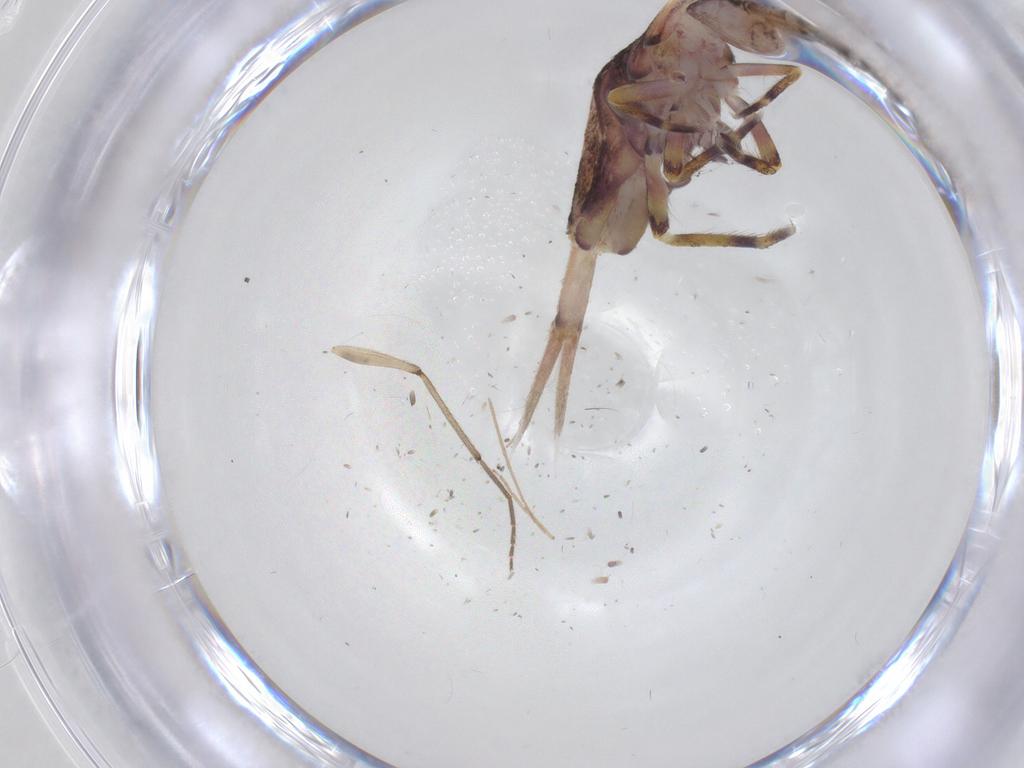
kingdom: Animalia
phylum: Arthropoda
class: Collembola
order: Entomobryomorpha
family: Entomobryidae
